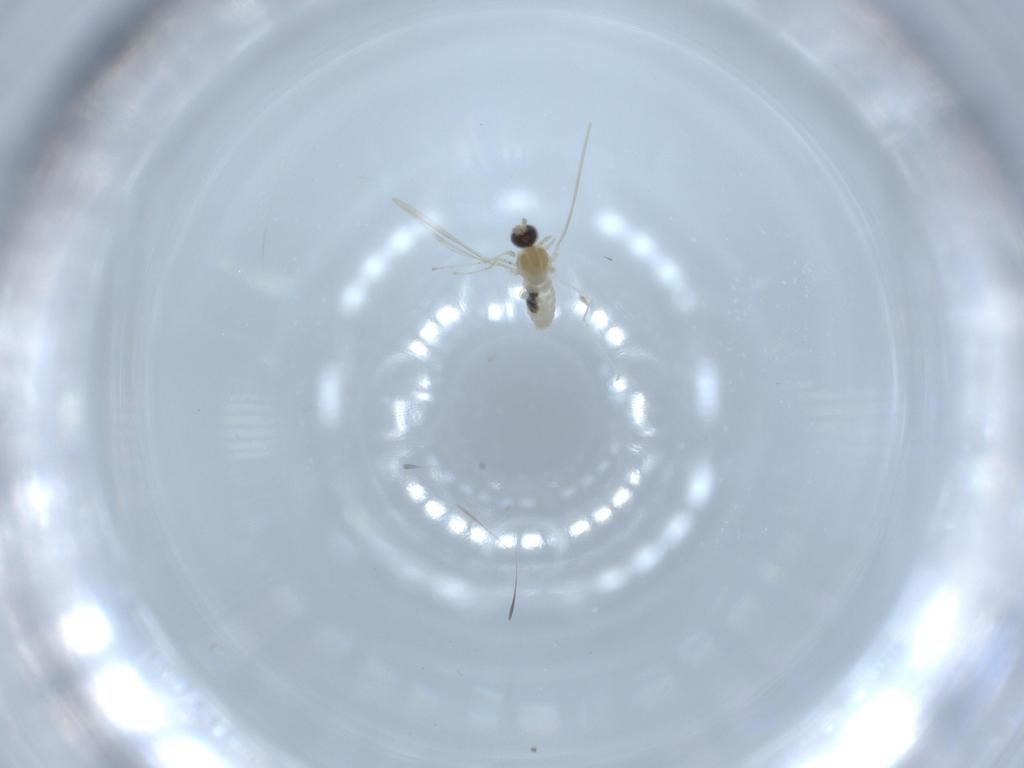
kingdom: Animalia
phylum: Arthropoda
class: Insecta
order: Diptera
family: Cecidomyiidae
